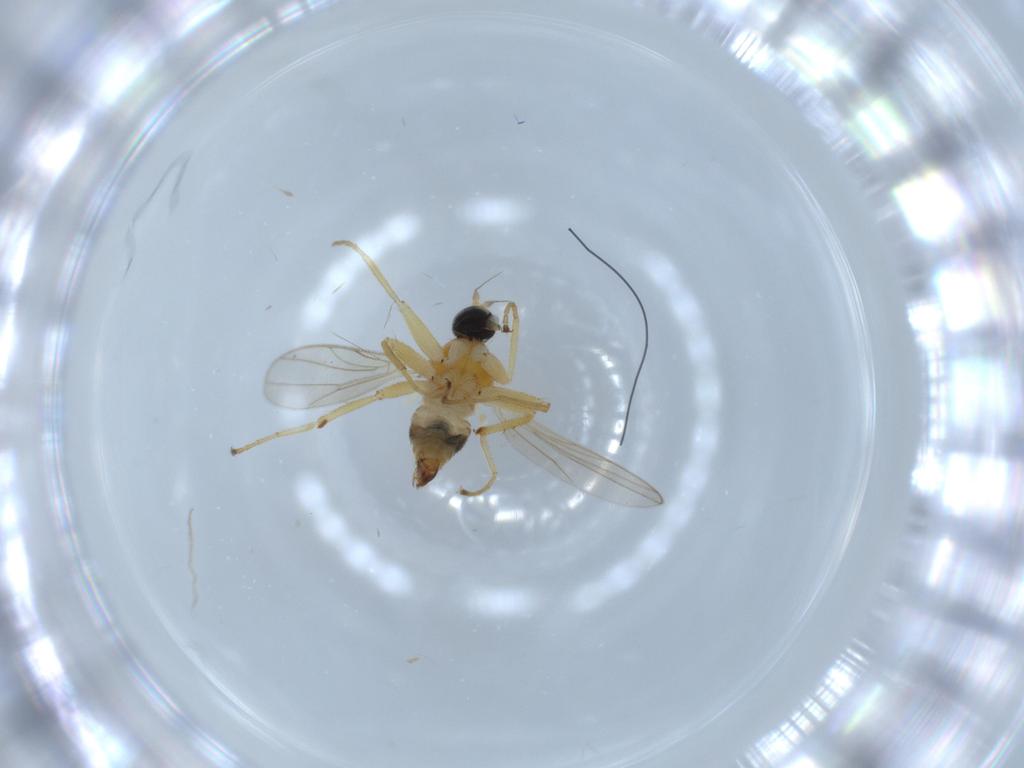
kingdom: Animalia
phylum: Arthropoda
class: Insecta
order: Diptera
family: Hybotidae
